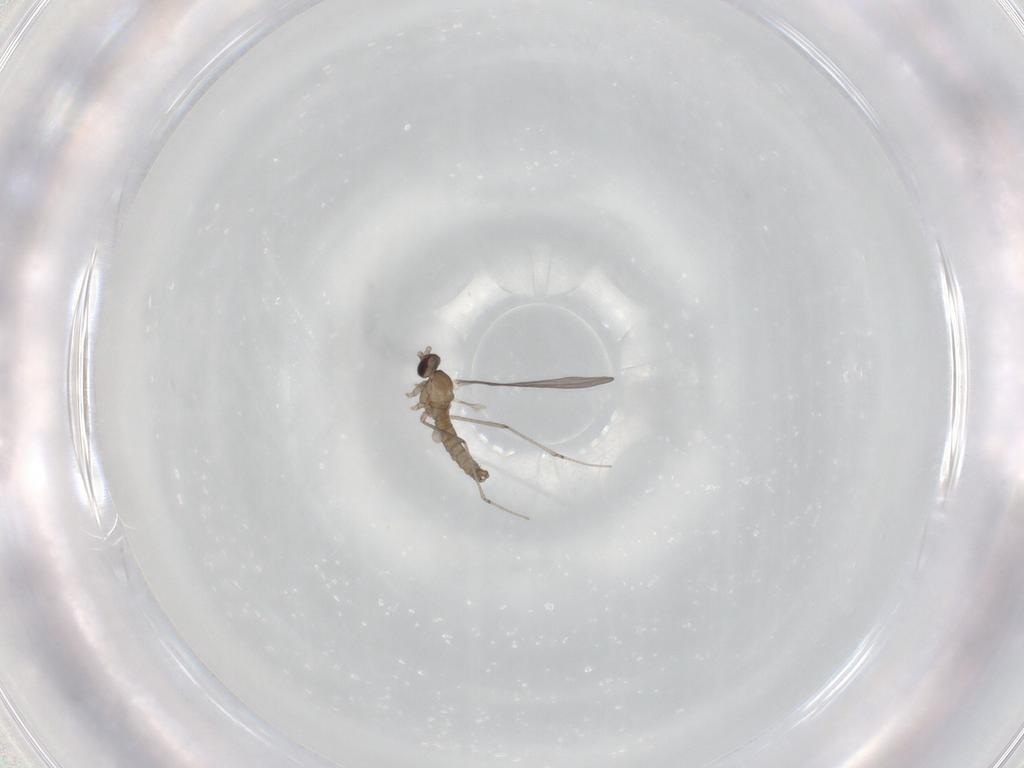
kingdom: Animalia
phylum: Arthropoda
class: Insecta
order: Diptera
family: Cecidomyiidae
